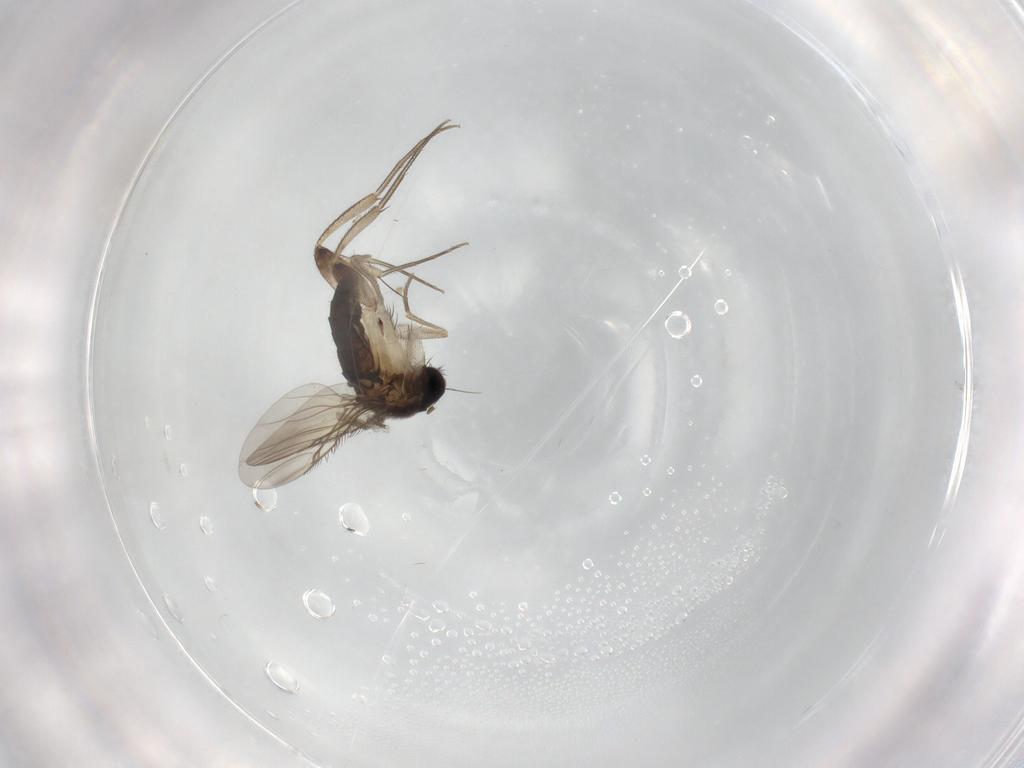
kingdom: Animalia
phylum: Arthropoda
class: Insecta
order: Diptera
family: Phoridae
